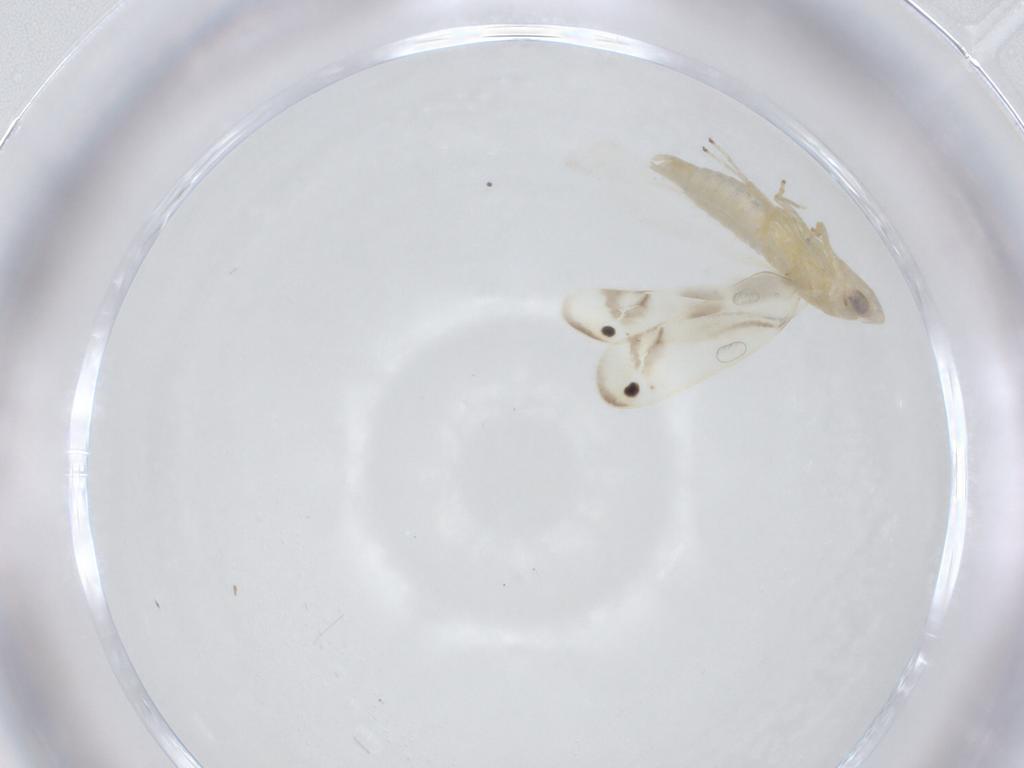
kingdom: Animalia
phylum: Arthropoda
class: Insecta
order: Hemiptera
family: Cicadellidae
